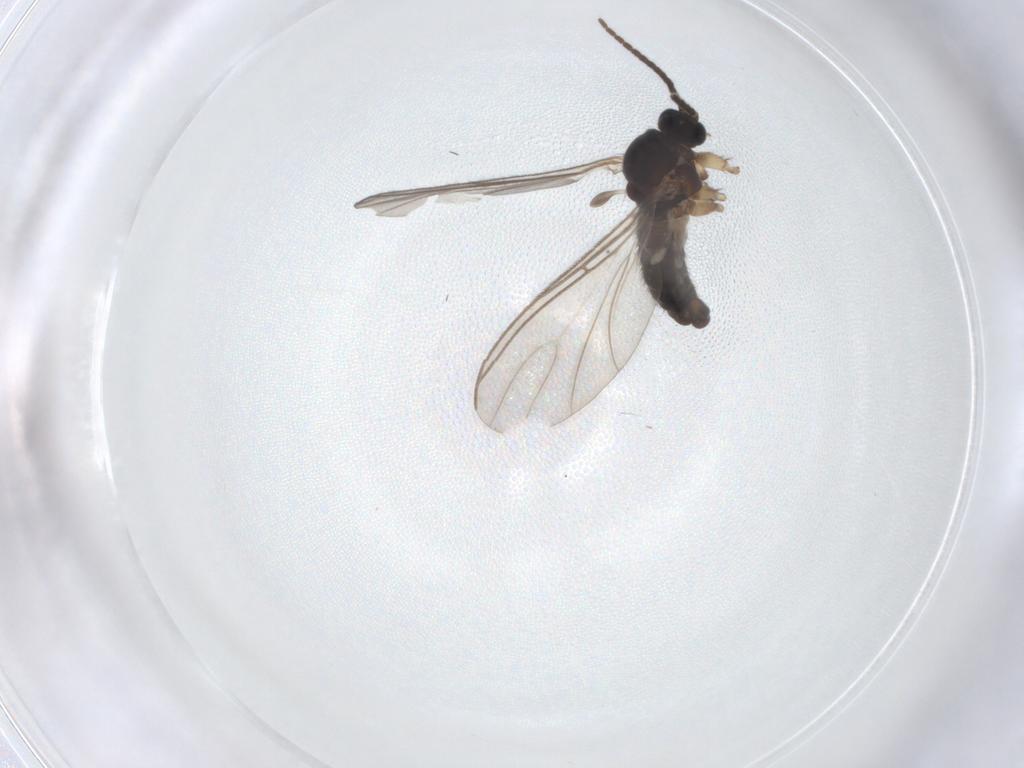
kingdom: Animalia
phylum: Arthropoda
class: Insecta
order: Diptera
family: Sciaridae
